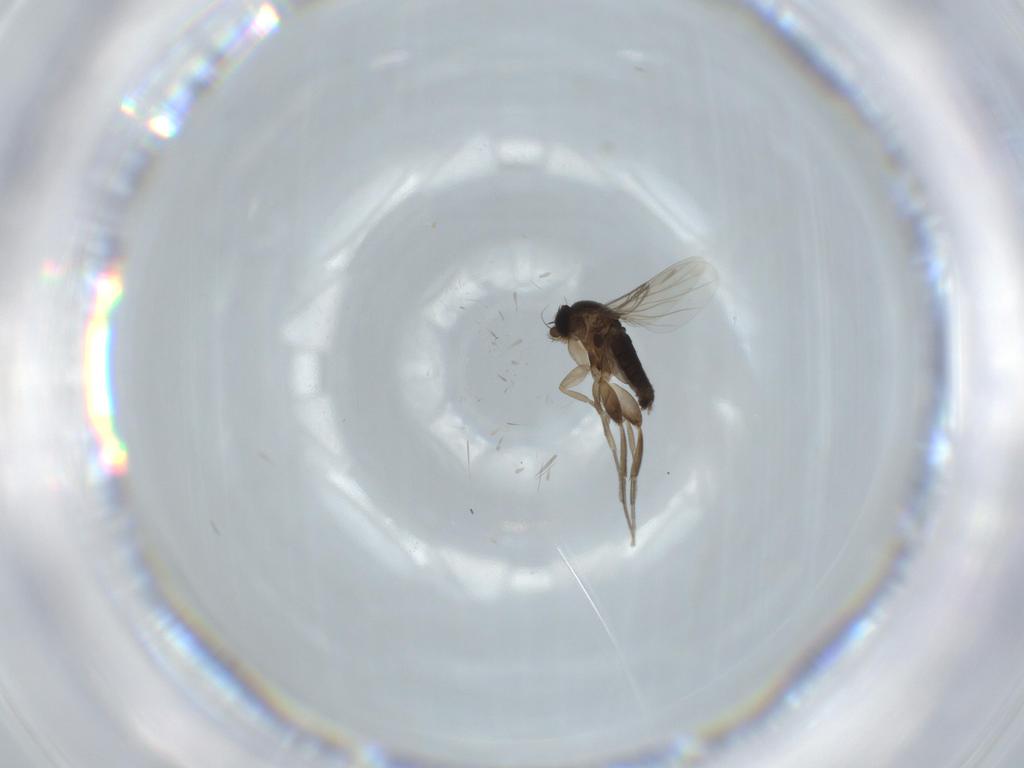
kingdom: Animalia
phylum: Arthropoda
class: Insecta
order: Diptera
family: Phoridae
